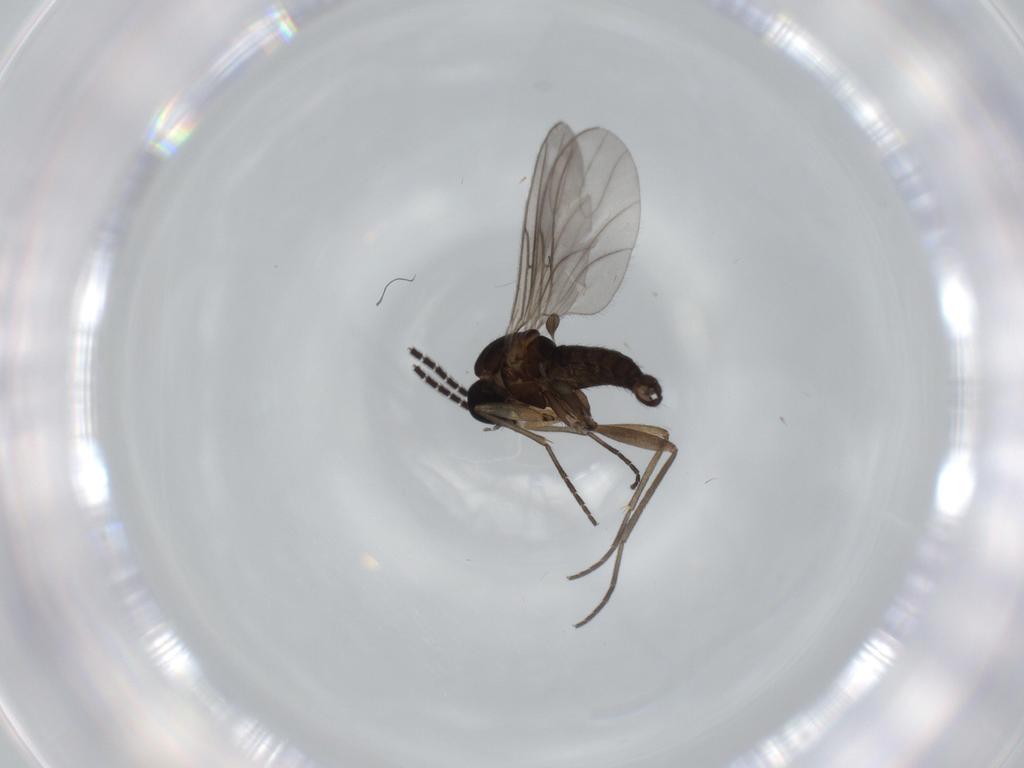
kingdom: Animalia
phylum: Arthropoda
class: Insecta
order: Diptera
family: Sciaridae
